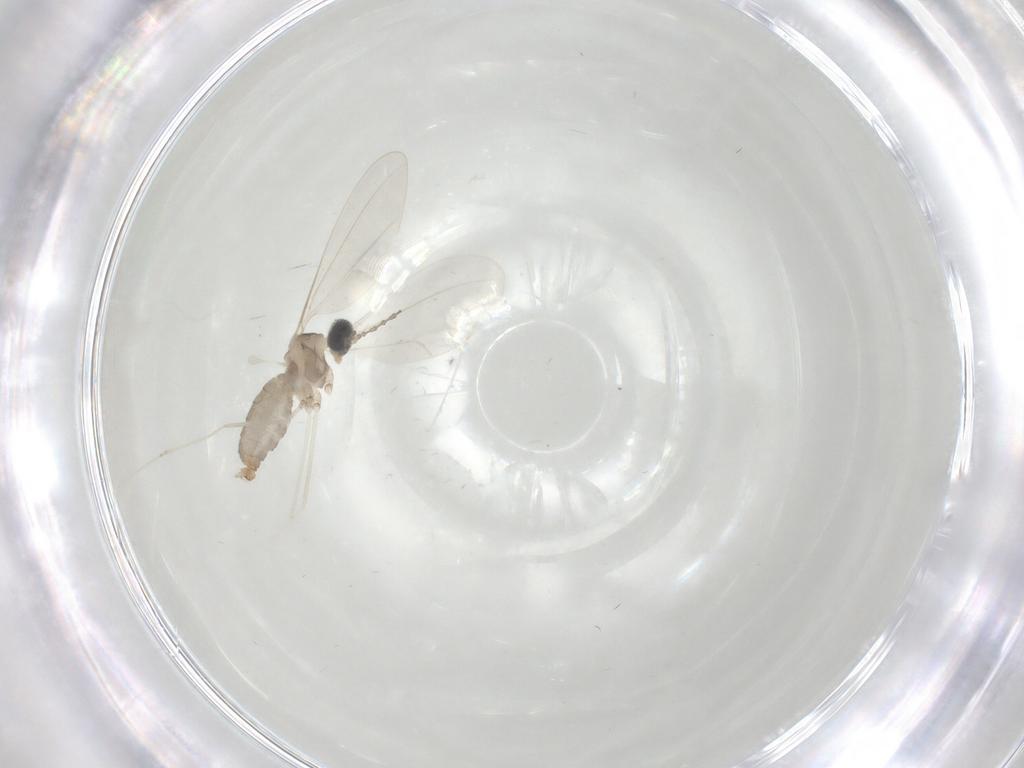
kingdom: Animalia
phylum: Arthropoda
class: Insecta
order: Diptera
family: Cecidomyiidae
